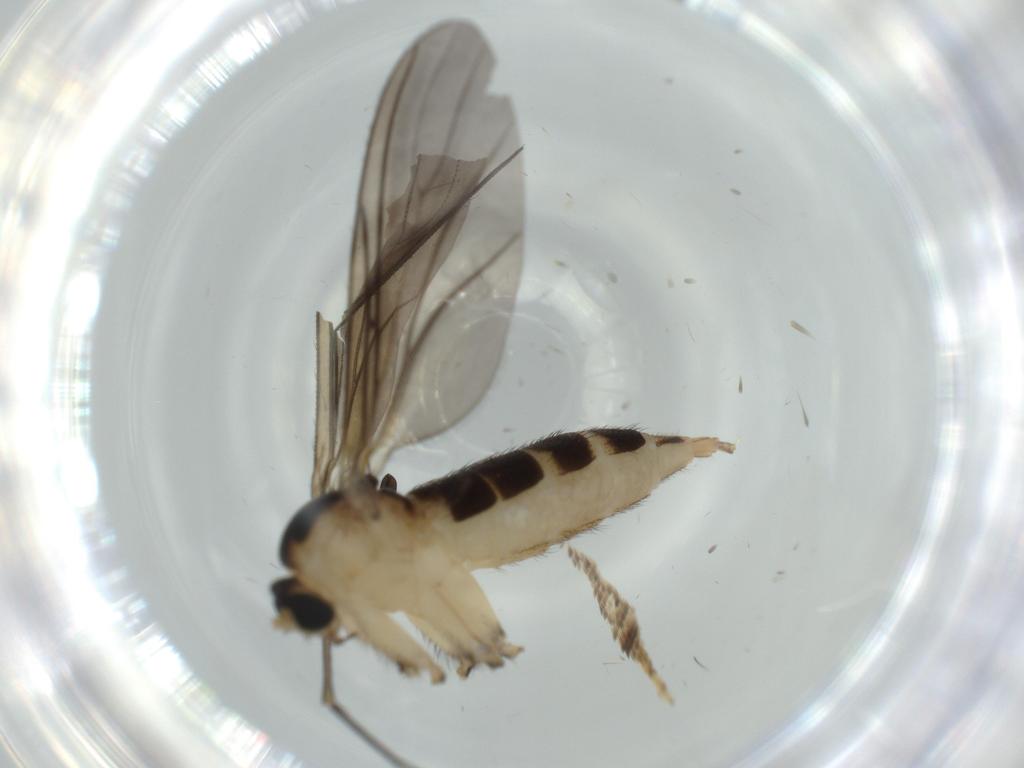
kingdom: Animalia
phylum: Arthropoda
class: Insecta
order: Diptera
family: Sciaridae
